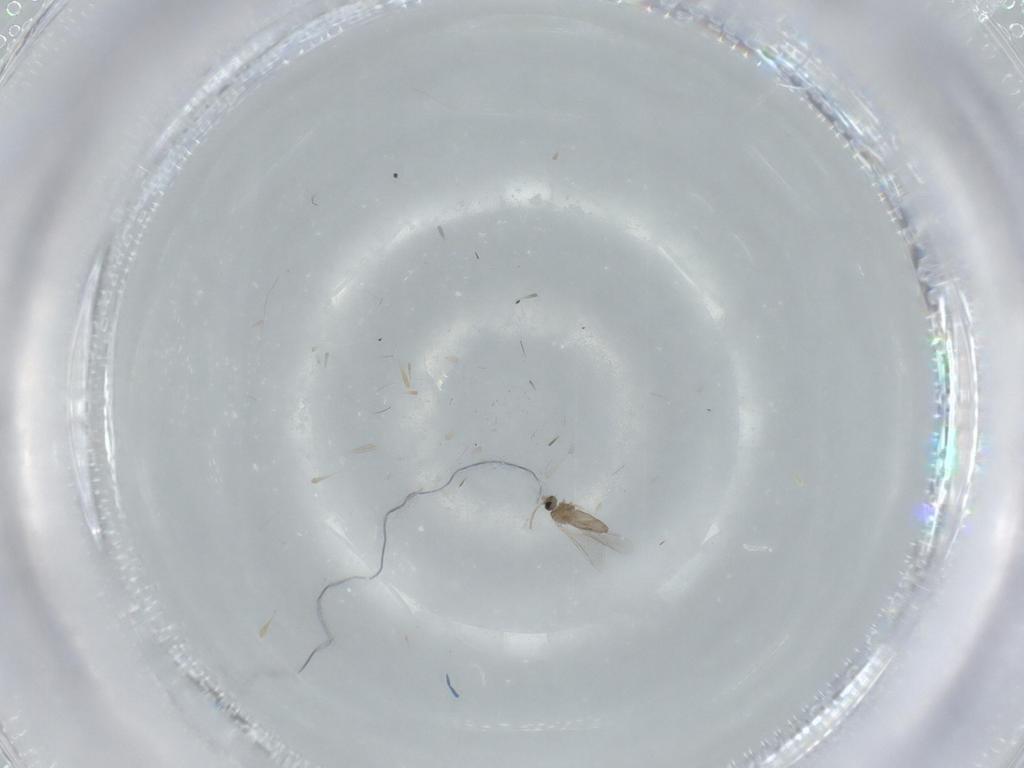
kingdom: Animalia
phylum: Arthropoda
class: Insecta
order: Diptera
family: Cecidomyiidae
